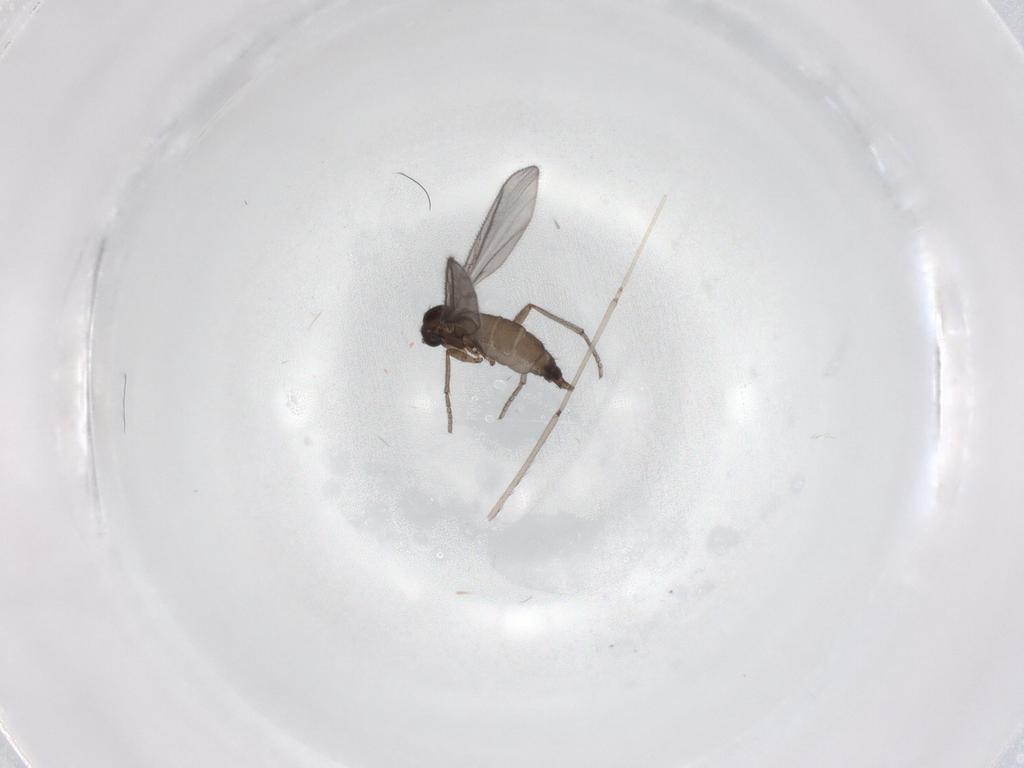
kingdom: Animalia
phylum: Arthropoda
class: Insecta
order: Diptera
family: Sciaridae
